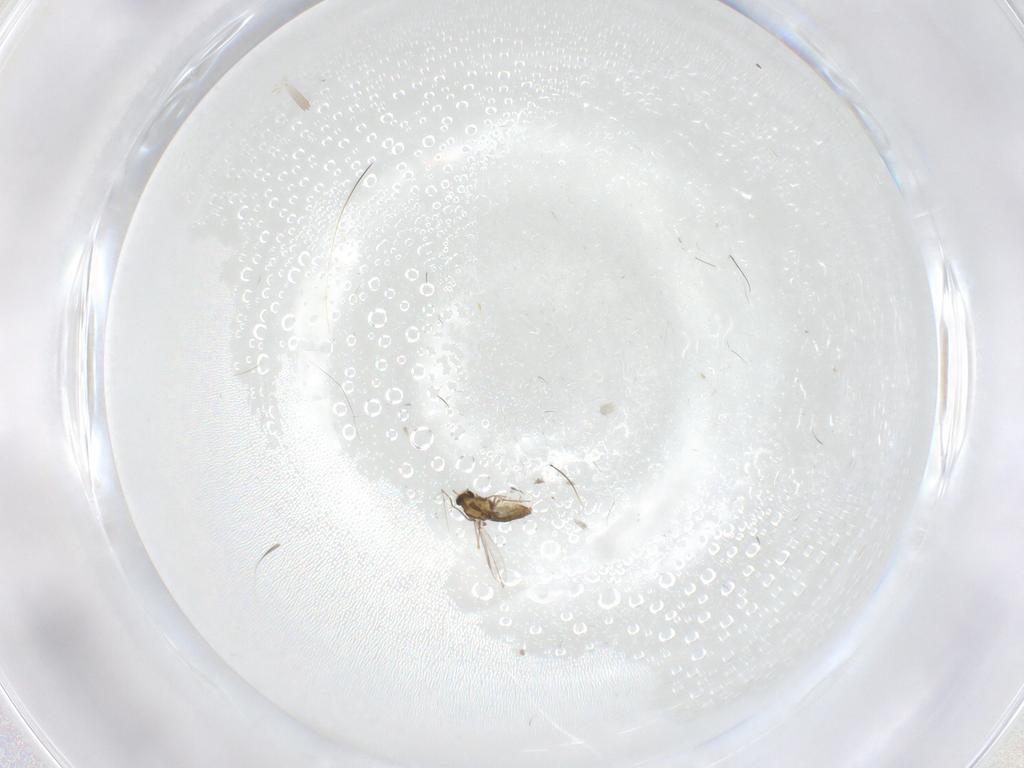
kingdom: Animalia
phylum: Arthropoda
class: Insecta
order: Diptera
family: Chironomidae
